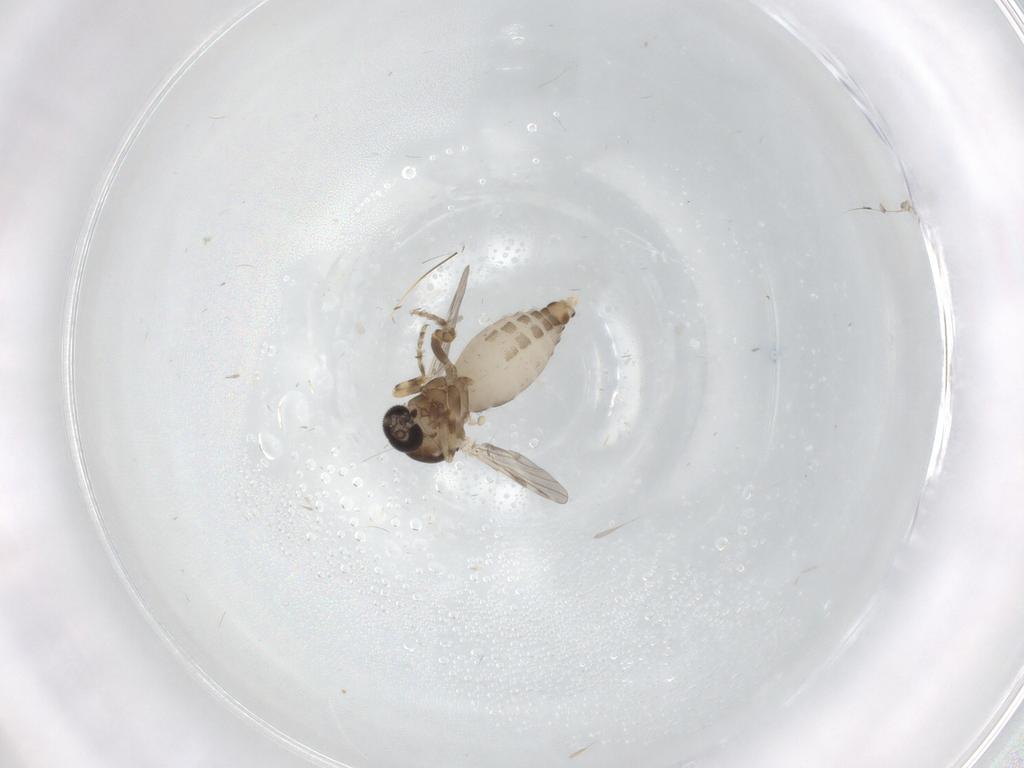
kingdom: Animalia
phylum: Arthropoda
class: Insecta
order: Diptera
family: Ceratopogonidae
